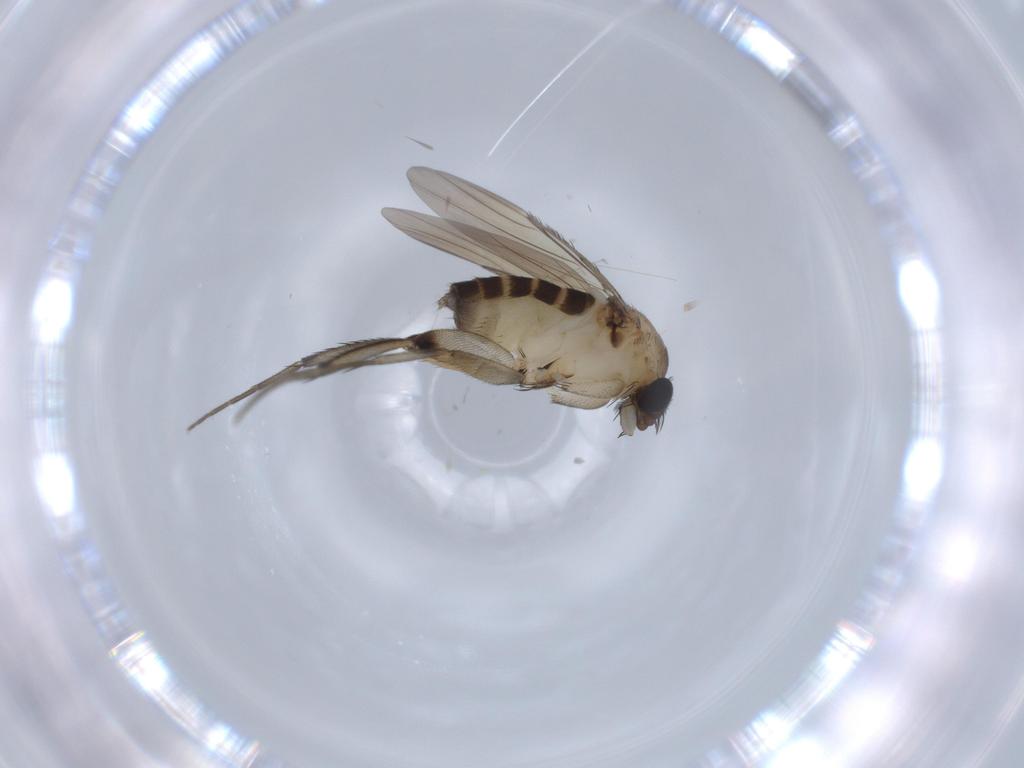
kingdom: Animalia
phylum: Arthropoda
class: Insecta
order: Diptera
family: Phoridae
